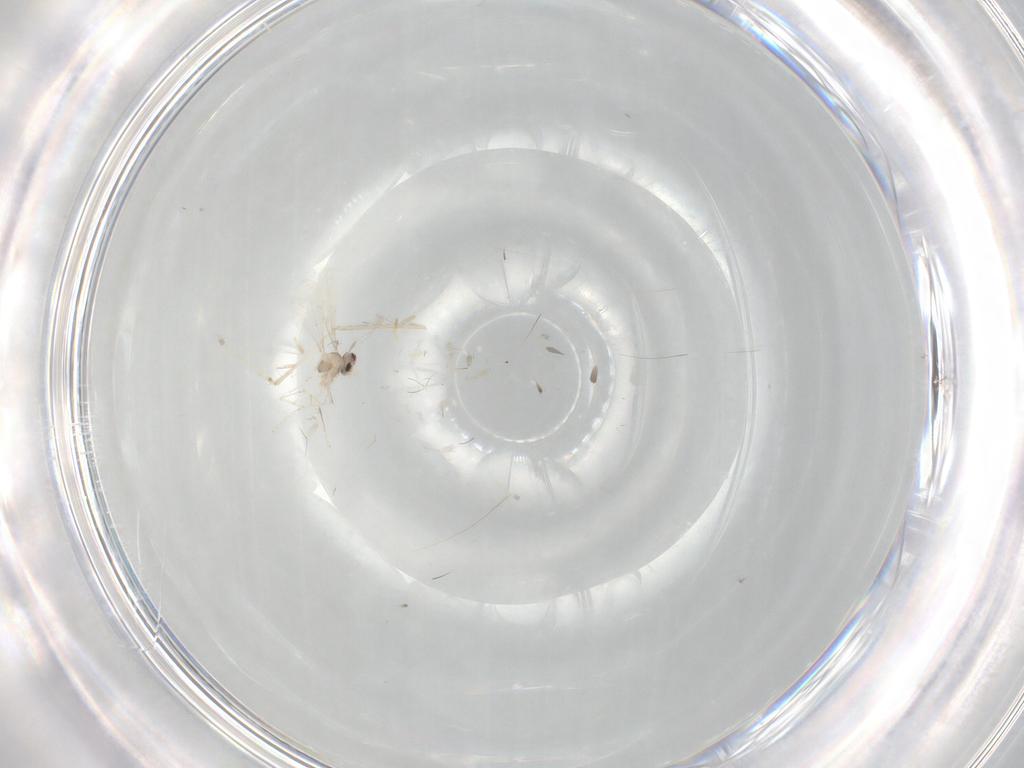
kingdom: Animalia
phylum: Arthropoda
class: Insecta
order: Diptera
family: Cecidomyiidae
